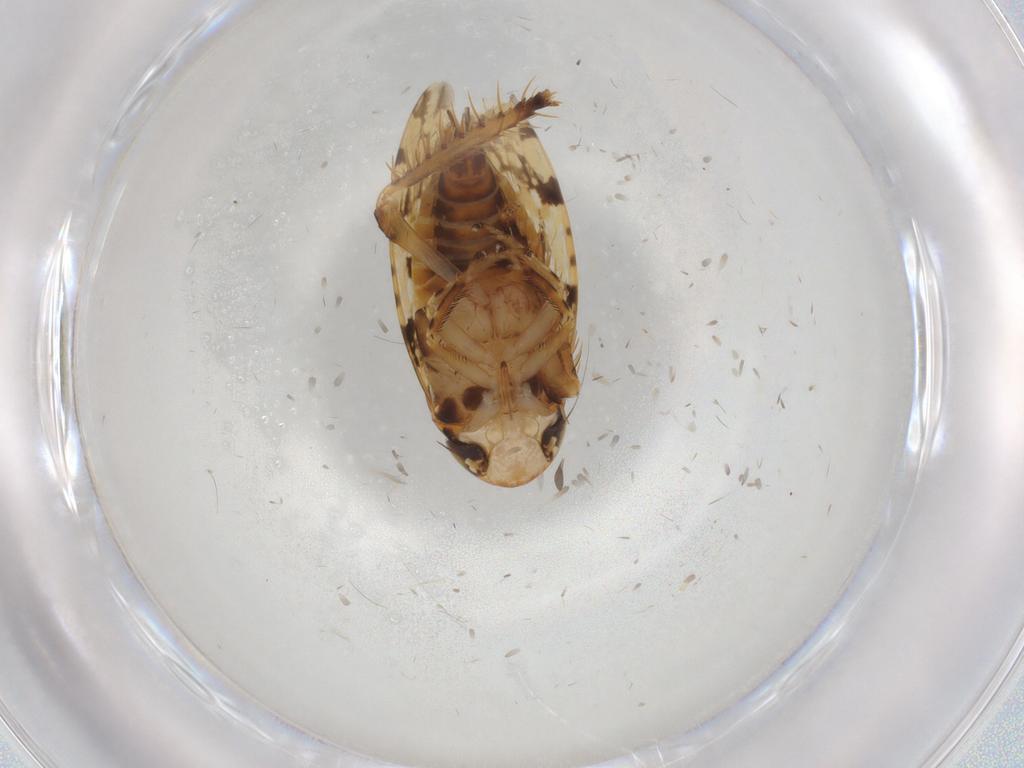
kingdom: Animalia
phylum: Arthropoda
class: Insecta
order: Hemiptera
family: Cicadellidae
